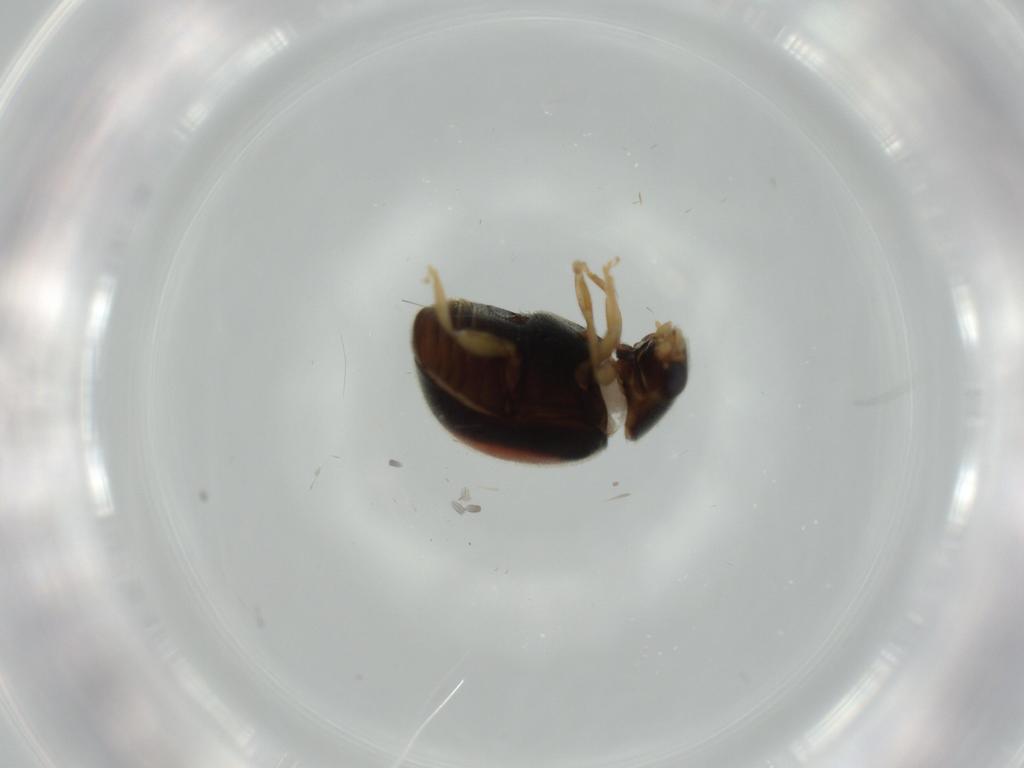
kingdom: Animalia
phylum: Arthropoda
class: Insecta
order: Coleoptera
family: Coccinellidae
